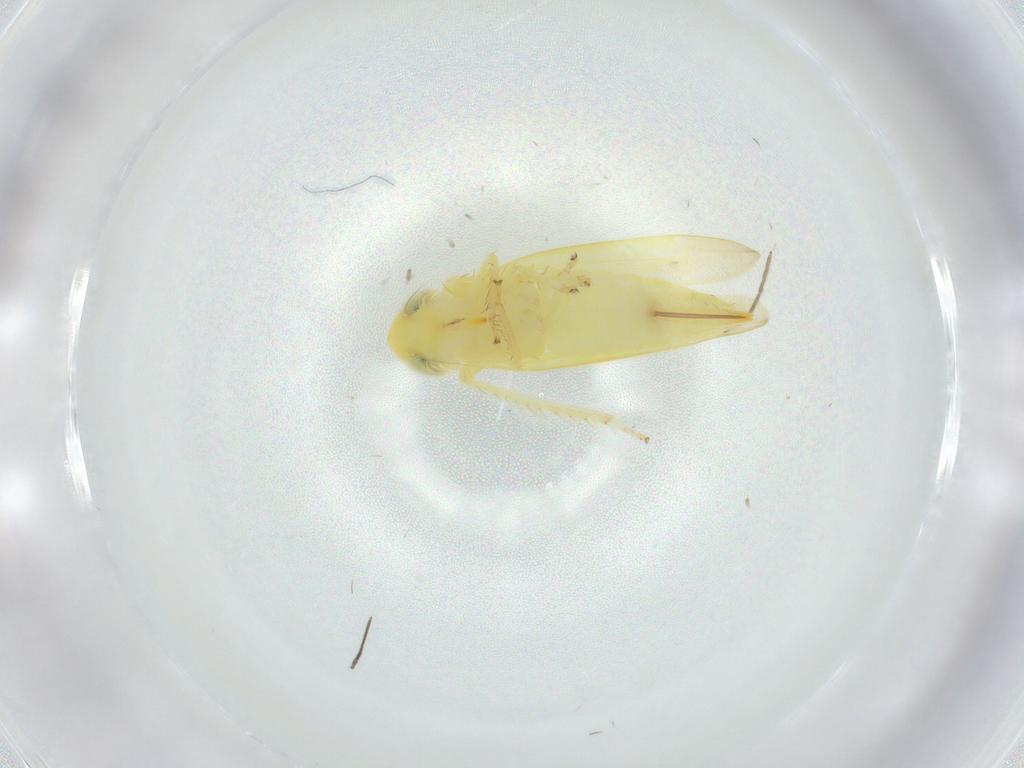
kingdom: Animalia
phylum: Arthropoda
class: Insecta
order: Hemiptera
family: Cicadellidae
